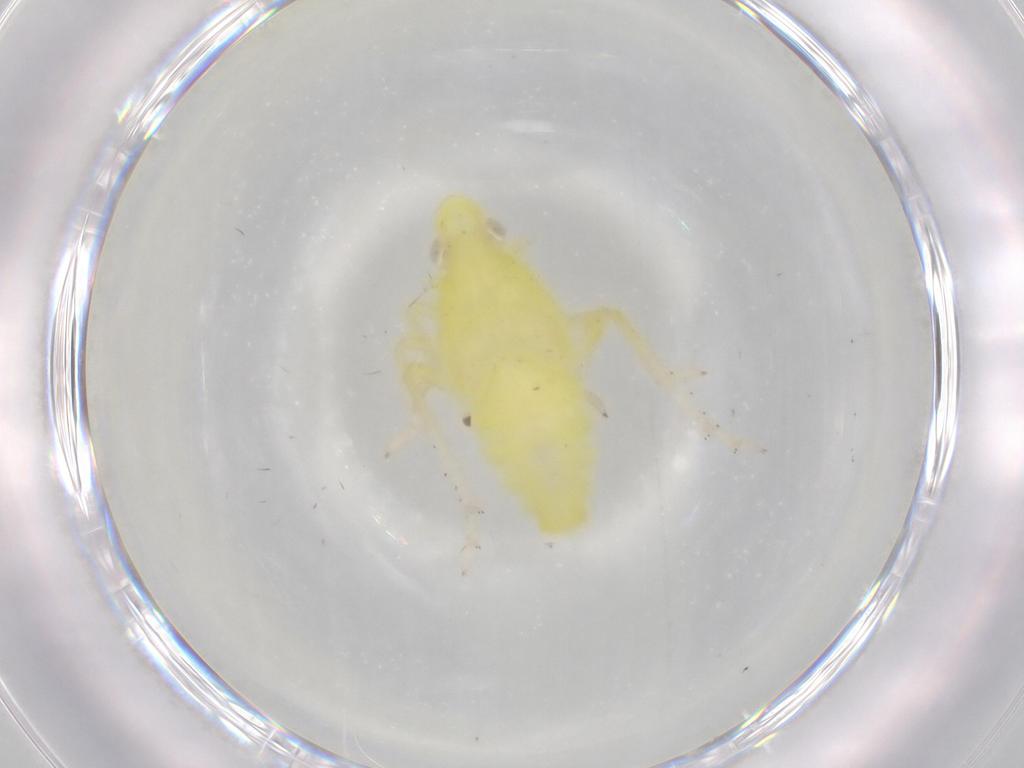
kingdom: Animalia
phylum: Arthropoda
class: Insecta
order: Hemiptera
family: Tropiduchidae
